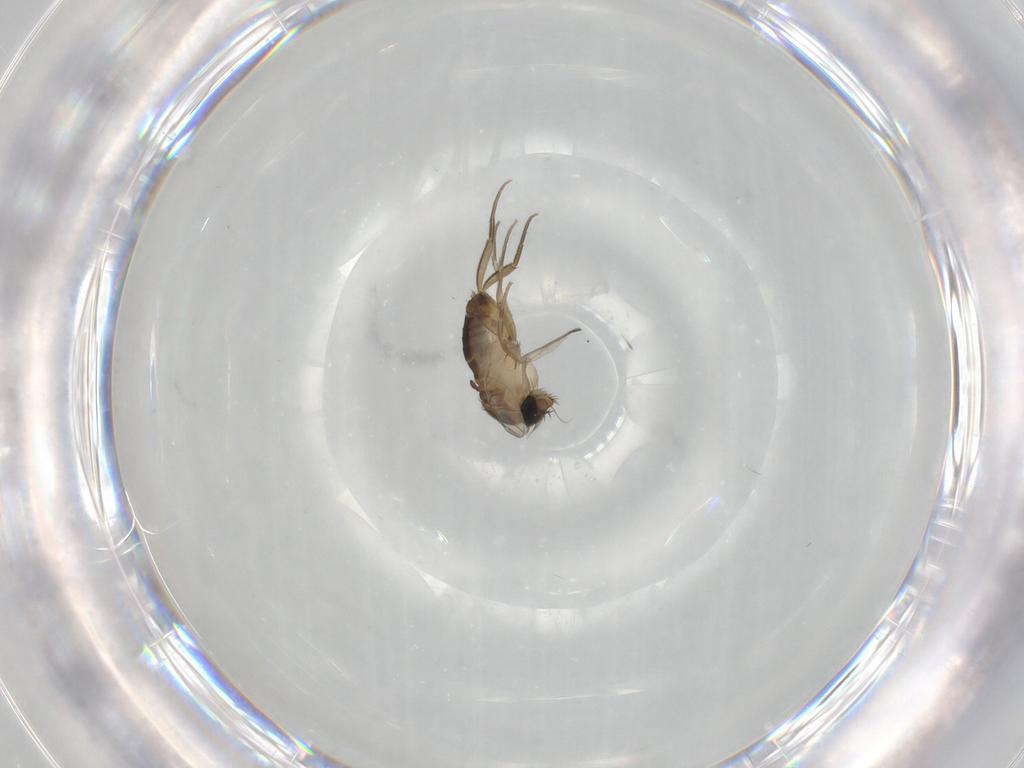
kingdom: Animalia
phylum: Arthropoda
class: Insecta
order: Diptera
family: Phoridae
